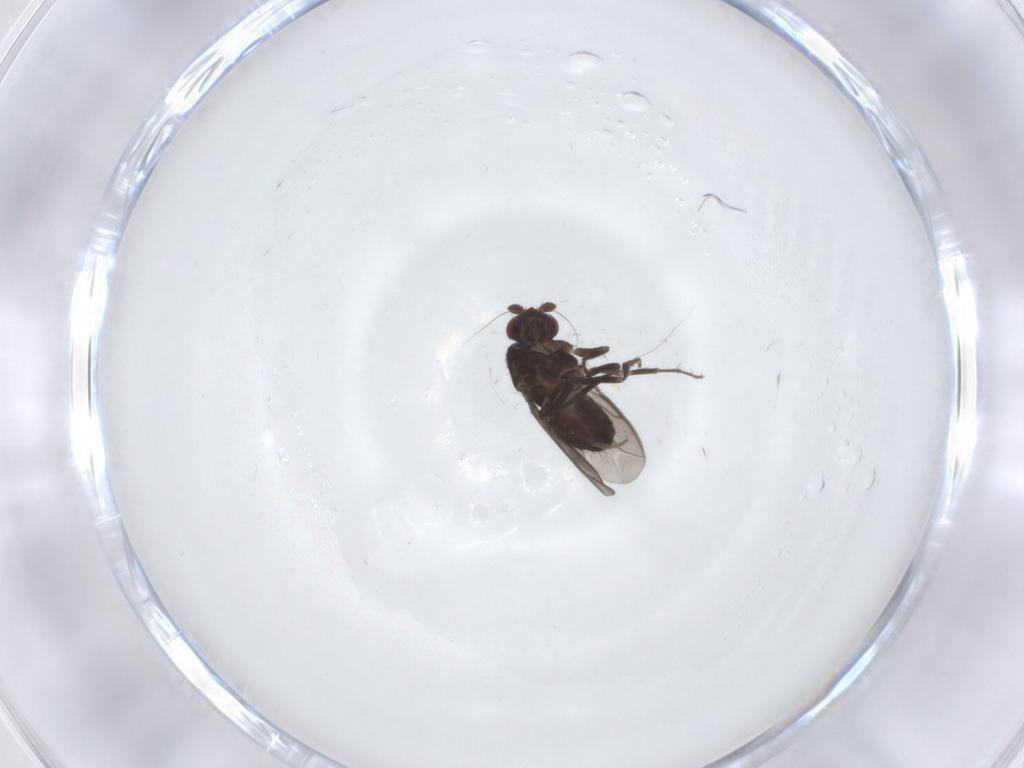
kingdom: Animalia
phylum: Arthropoda
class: Insecta
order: Diptera
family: Sphaeroceridae
